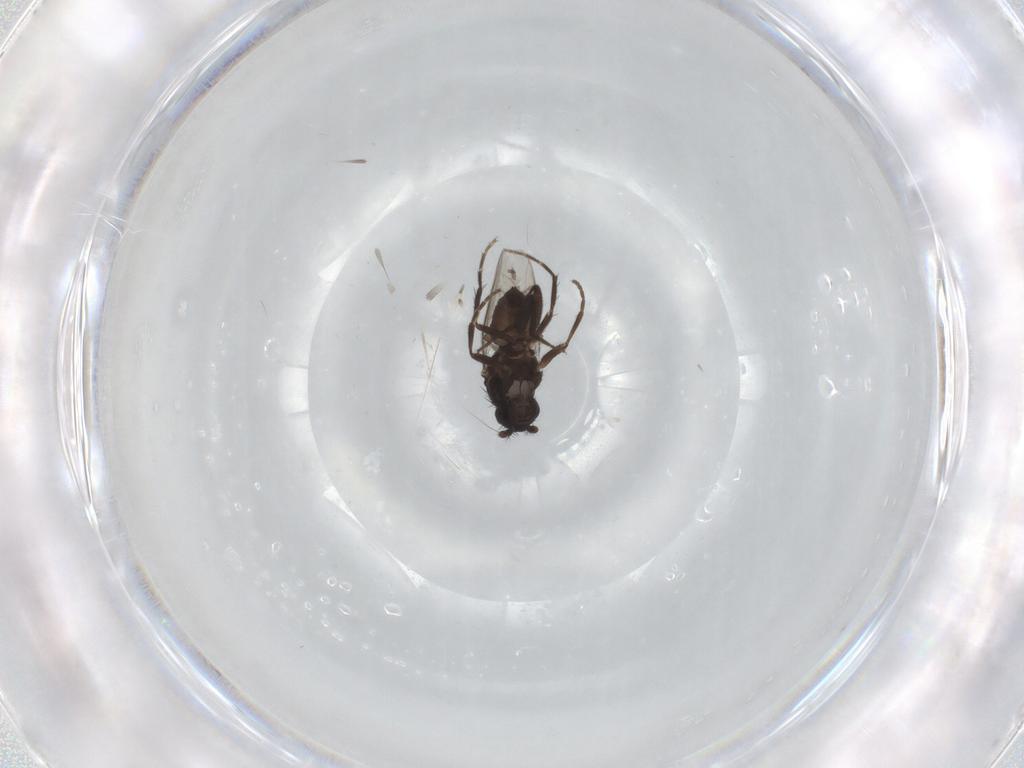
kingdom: Animalia
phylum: Arthropoda
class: Insecta
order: Diptera
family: Sphaeroceridae
